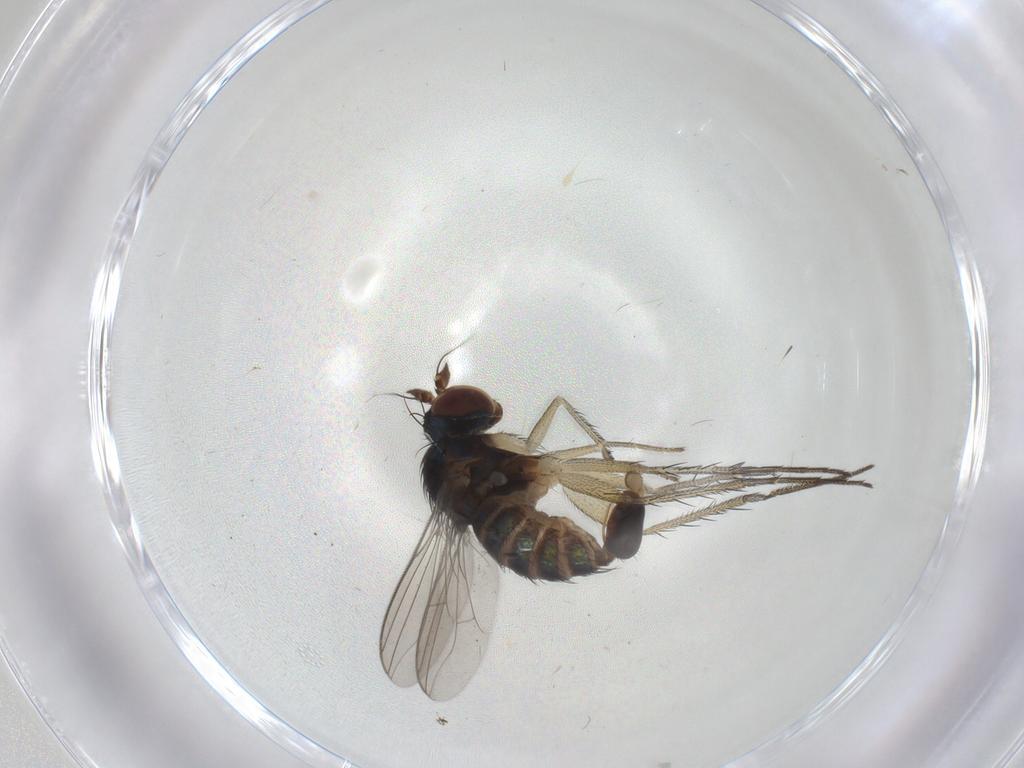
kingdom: Animalia
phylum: Arthropoda
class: Insecta
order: Diptera
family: Dolichopodidae
